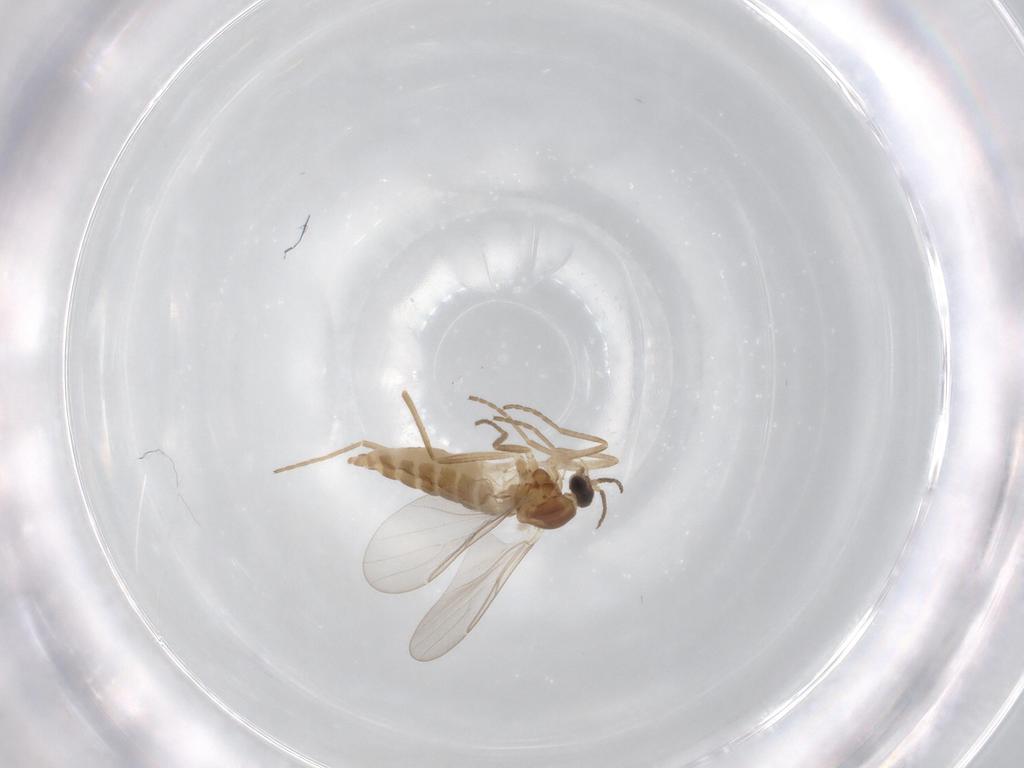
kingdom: Animalia
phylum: Arthropoda
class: Insecta
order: Diptera
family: Cecidomyiidae
